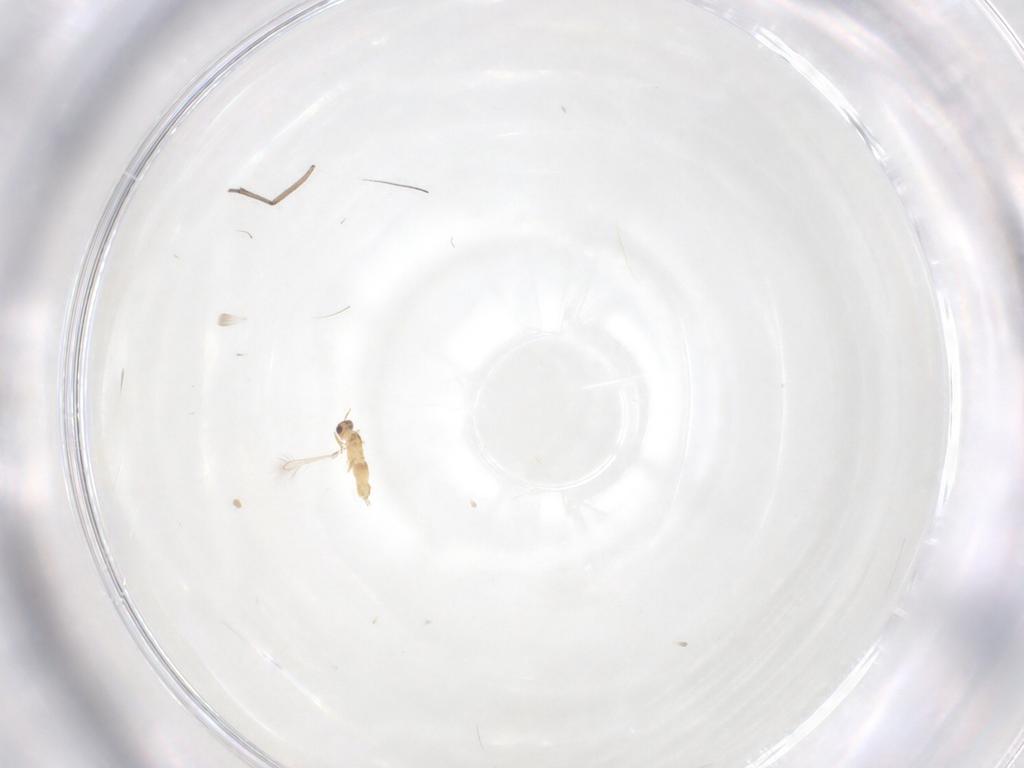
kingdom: Animalia
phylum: Arthropoda
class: Insecta
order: Hymenoptera
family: Mymaridae
